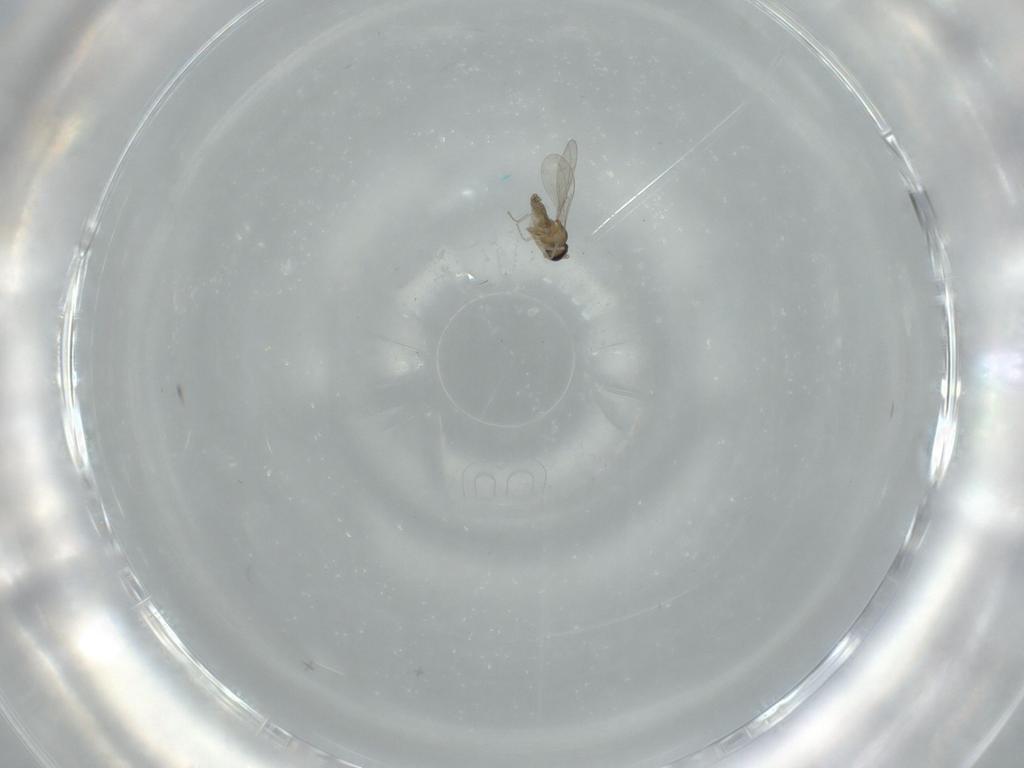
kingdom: Animalia
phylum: Arthropoda
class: Insecta
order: Diptera
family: Cecidomyiidae
